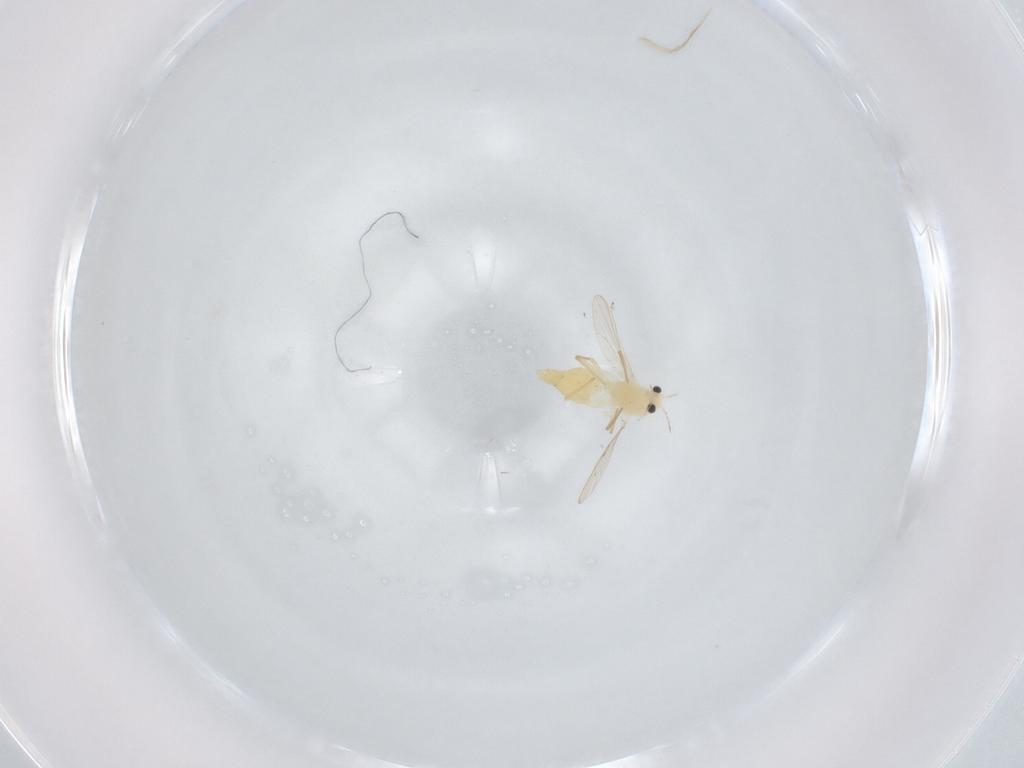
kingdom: Animalia
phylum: Arthropoda
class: Insecta
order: Diptera
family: Chironomidae
